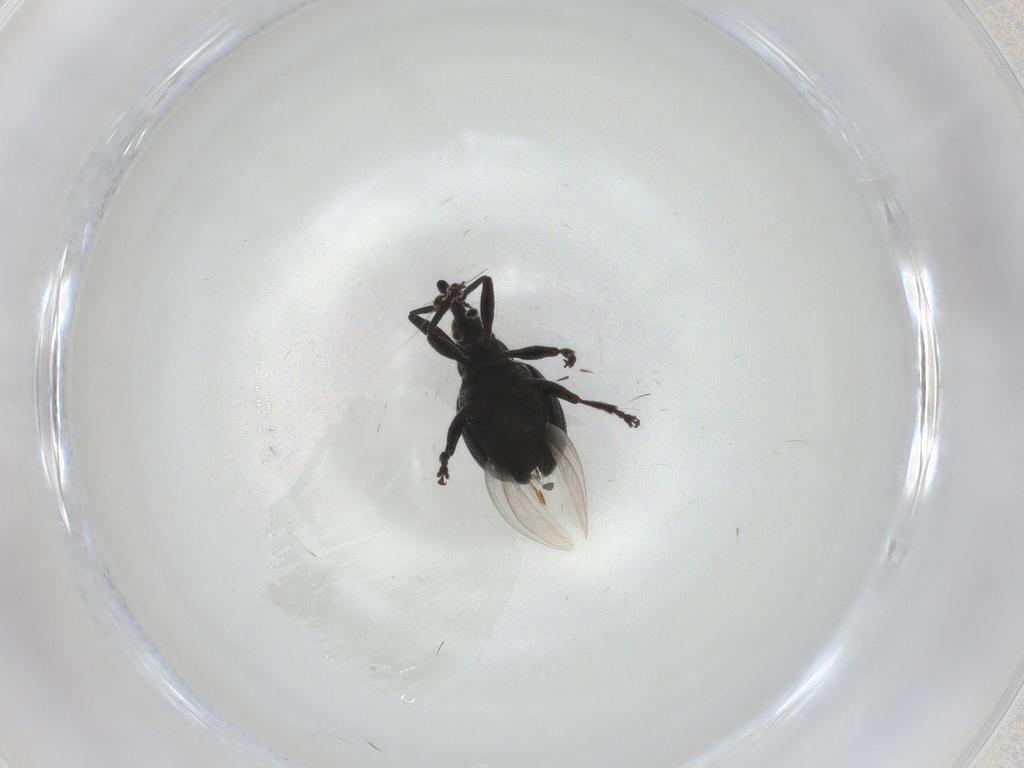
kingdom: Animalia
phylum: Arthropoda
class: Insecta
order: Coleoptera
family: Brentidae
